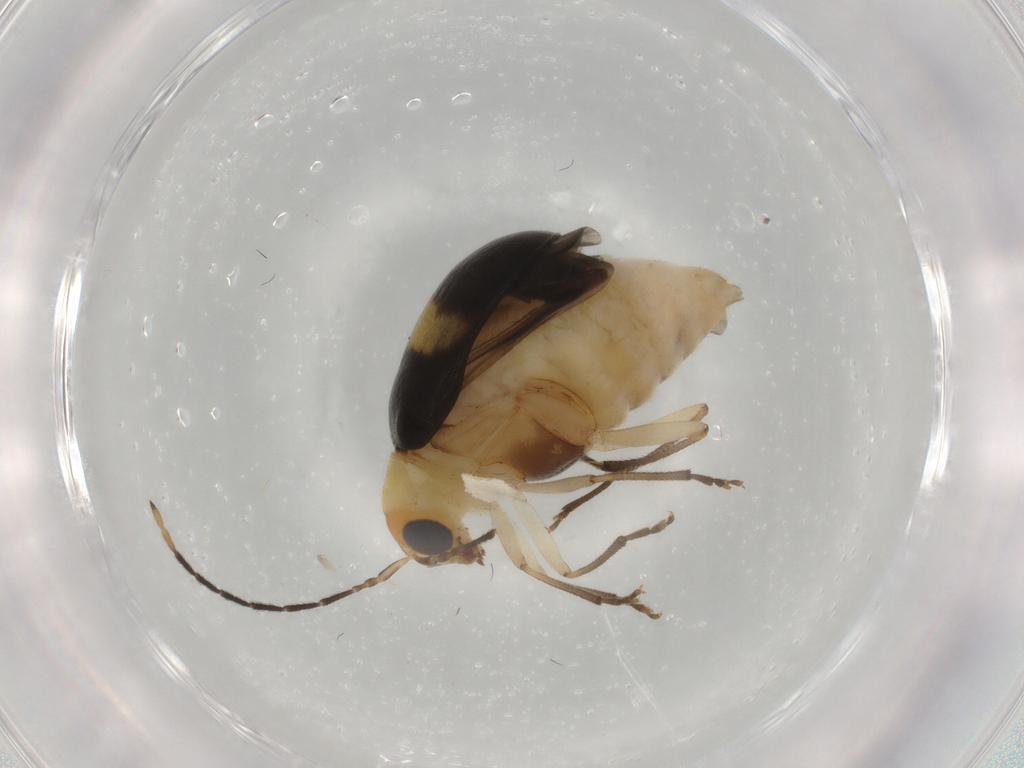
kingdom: Animalia
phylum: Arthropoda
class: Insecta
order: Coleoptera
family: Chrysomelidae
